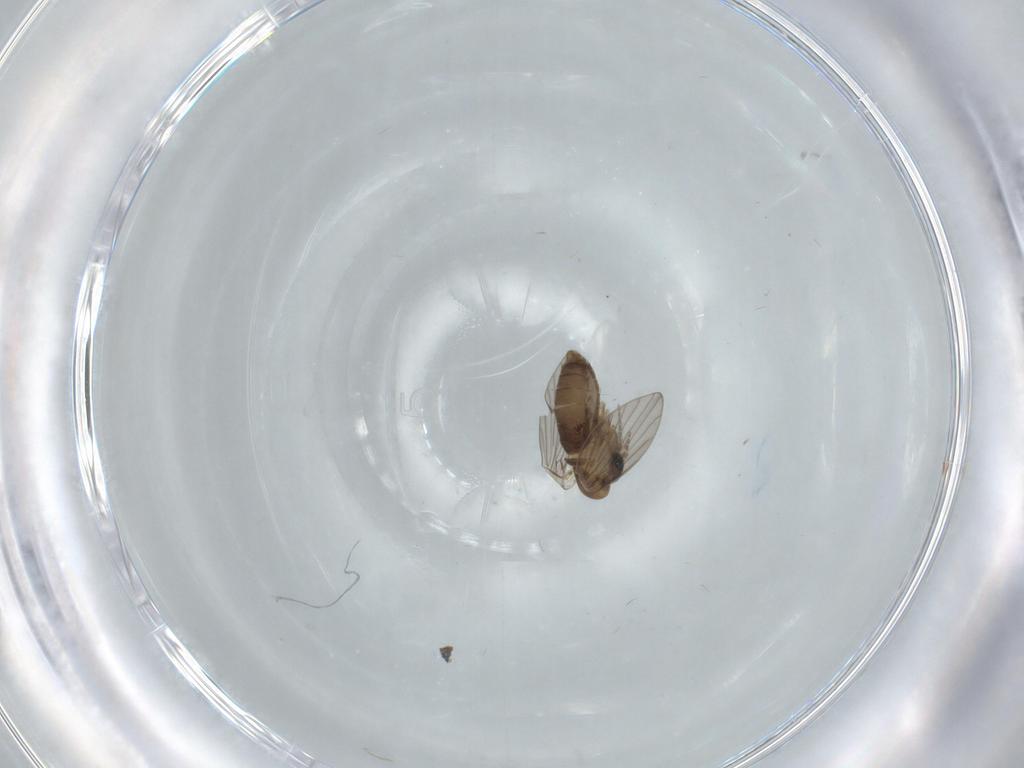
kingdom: Animalia
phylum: Arthropoda
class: Insecta
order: Diptera
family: Psychodidae
